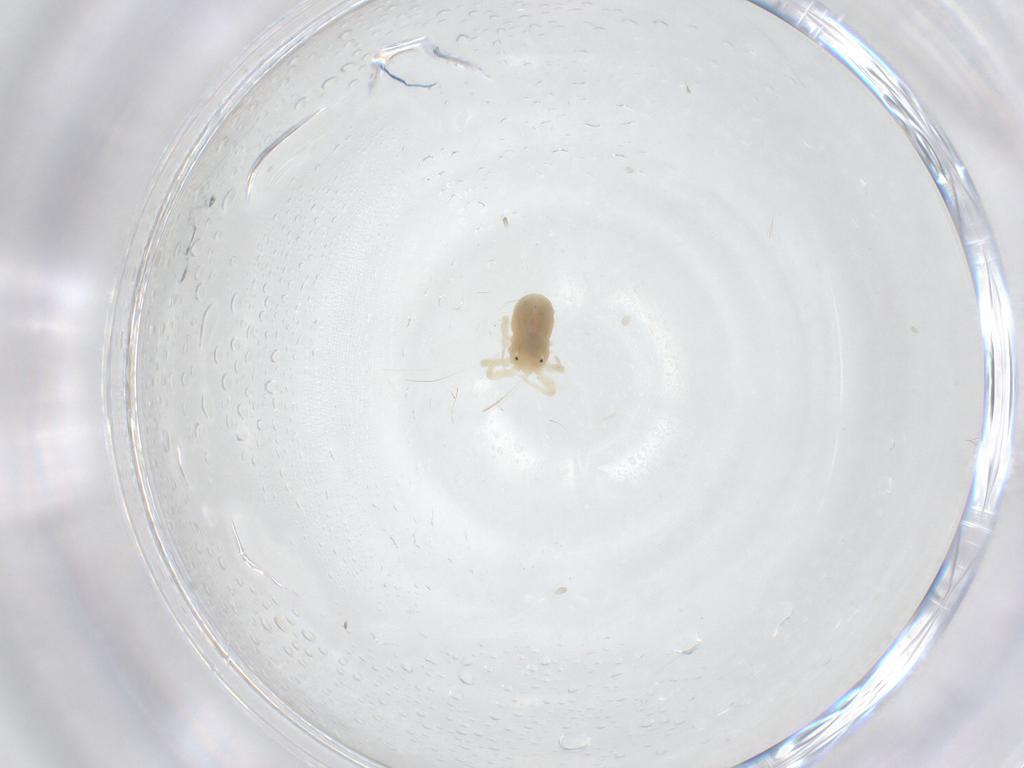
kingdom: Animalia
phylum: Arthropoda
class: Arachnida
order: Trombidiformes
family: Anystidae
